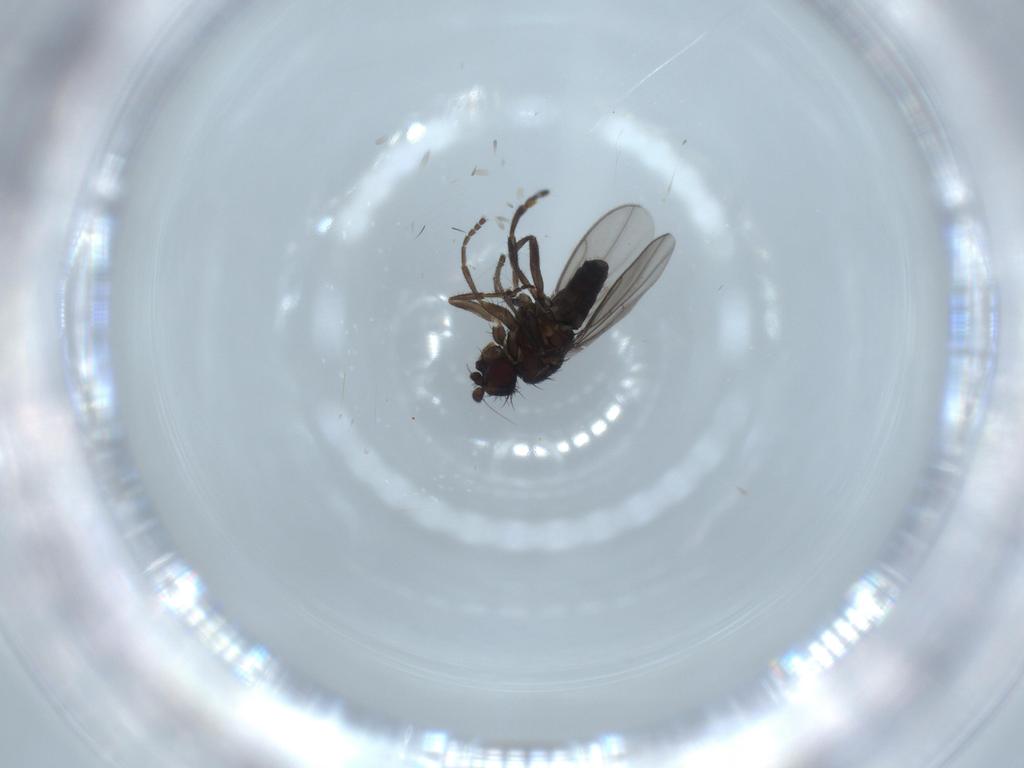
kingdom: Animalia
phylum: Arthropoda
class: Insecta
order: Diptera
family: Sphaeroceridae
